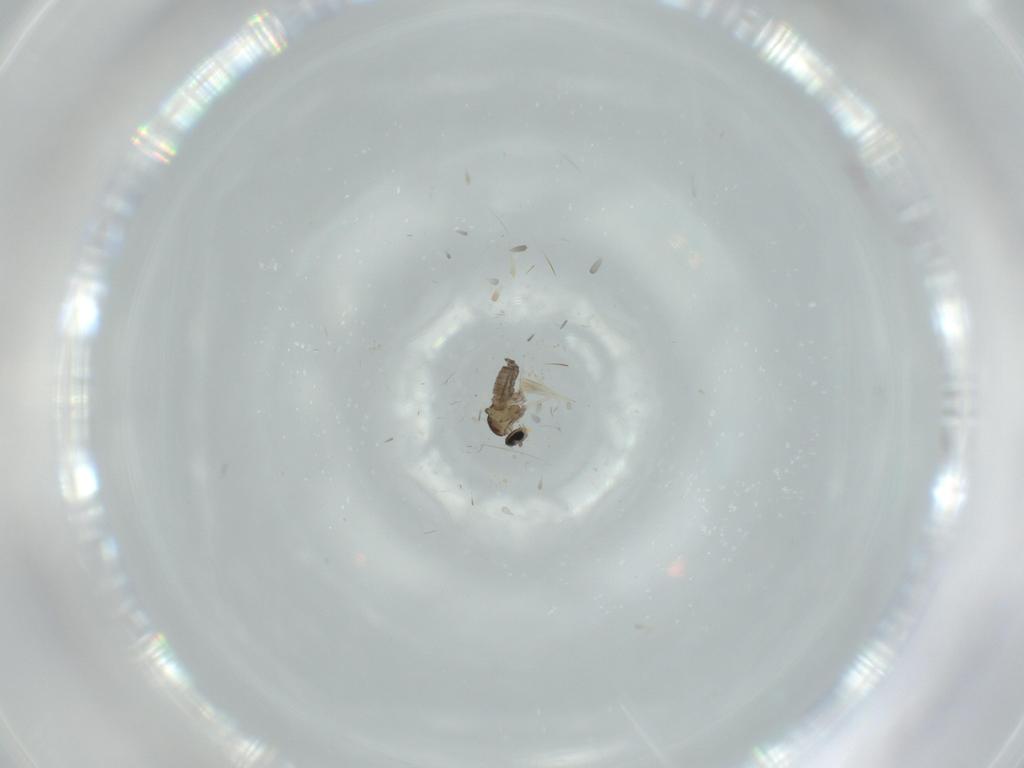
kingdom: Animalia
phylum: Arthropoda
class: Insecta
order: Diptera
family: Cecidomyiidae
